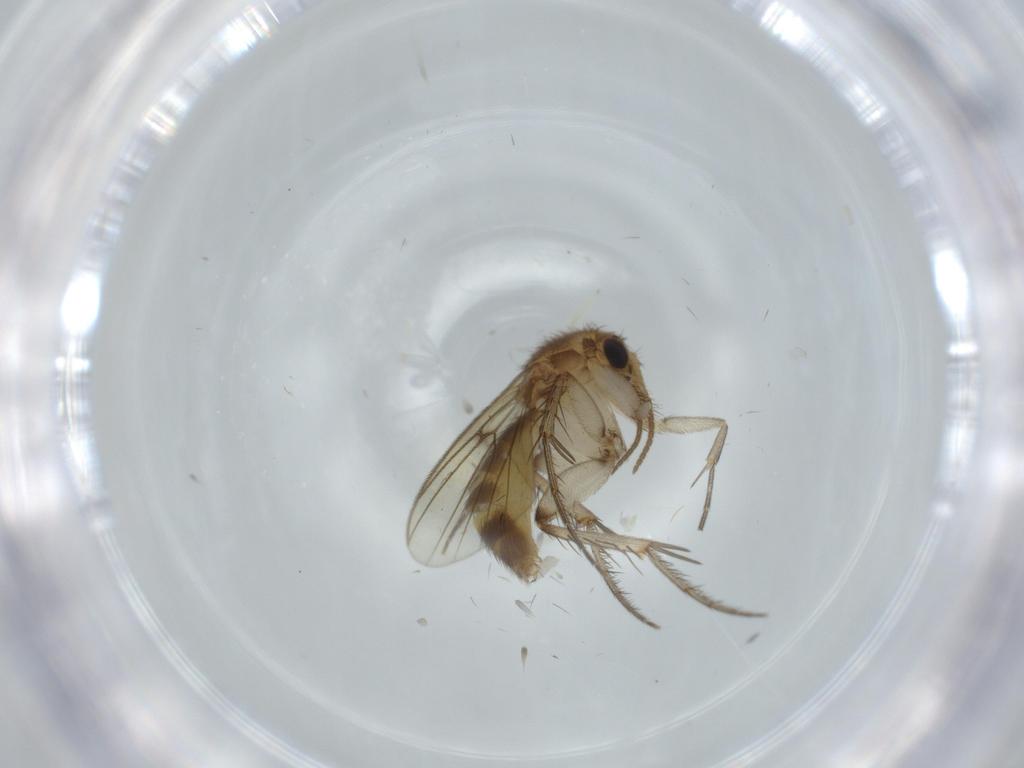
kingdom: Animalia
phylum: Arthropoda
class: Insecta
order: Diptera
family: Mycetophilidae
